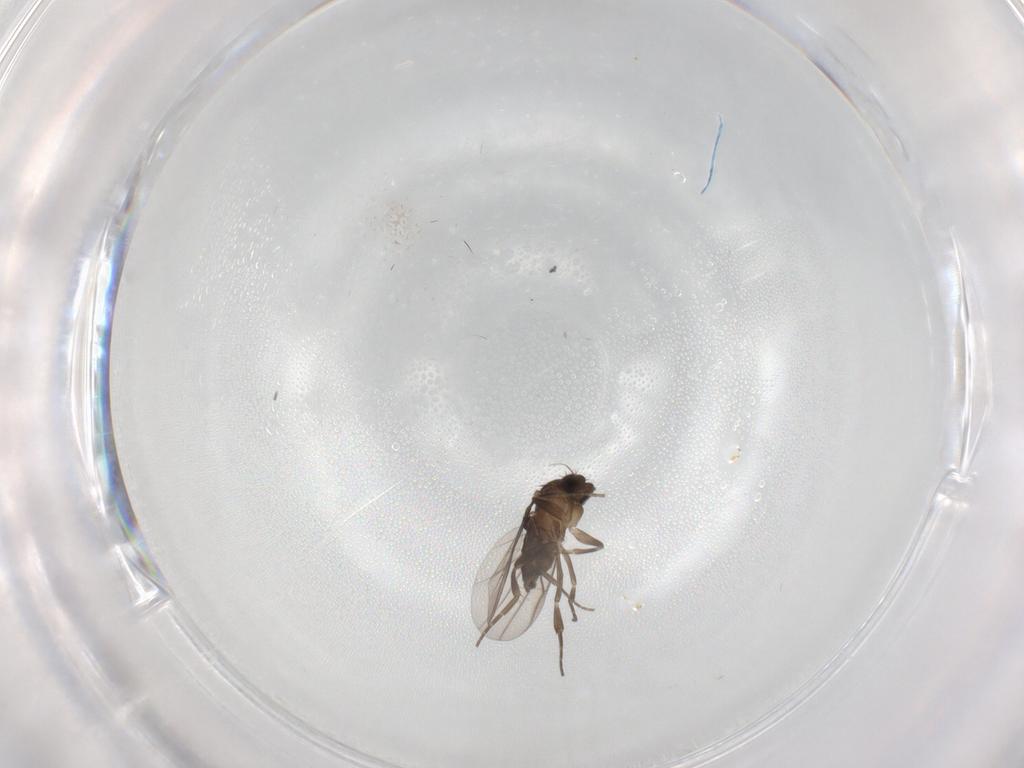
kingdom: Animalia
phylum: Arthropoda
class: Insecta
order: Diptera
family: Phoridae
